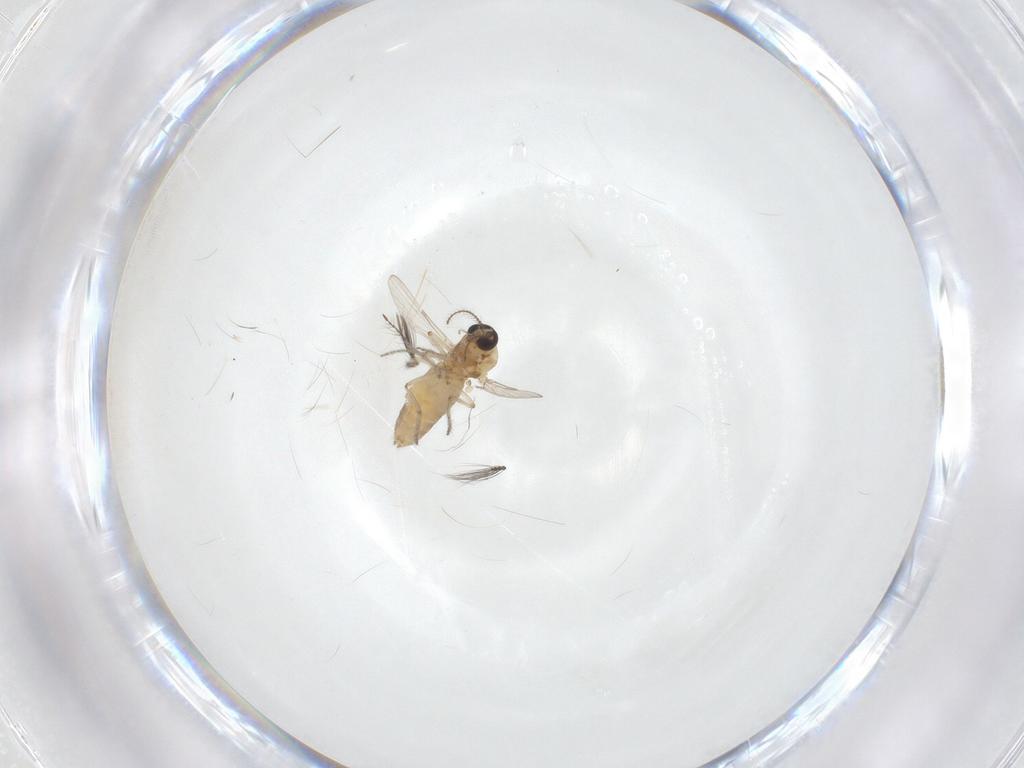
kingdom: Animalia
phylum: Arthropoda
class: Insecta
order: Diptera
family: Ceratopogonidae
